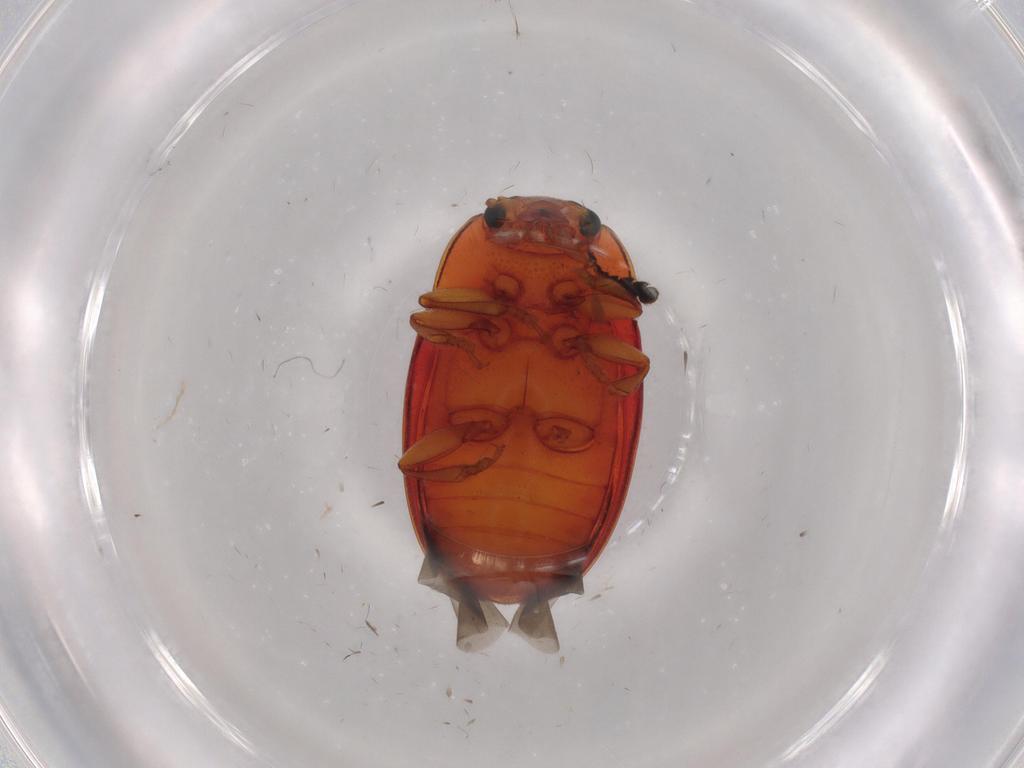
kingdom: Animalia
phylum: Arthropoda
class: Insecta
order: Coleoptera
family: Erotylidae
